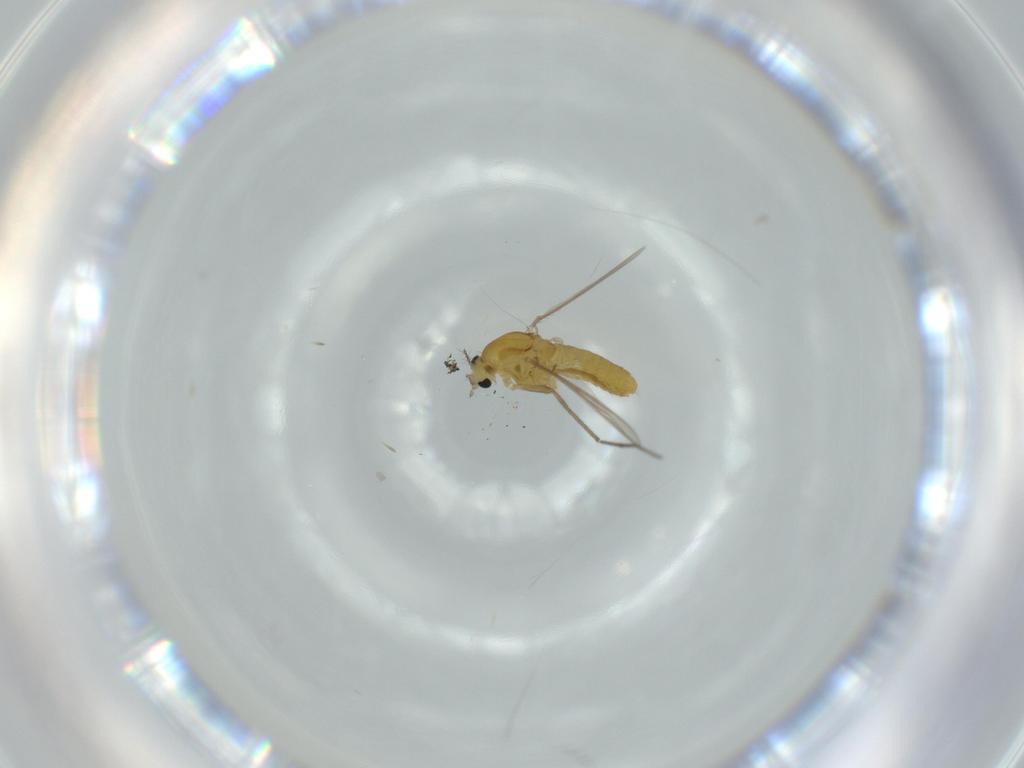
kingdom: Animalia
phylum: Arthropoda
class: Insecta
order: Diptera
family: Chironomidae
